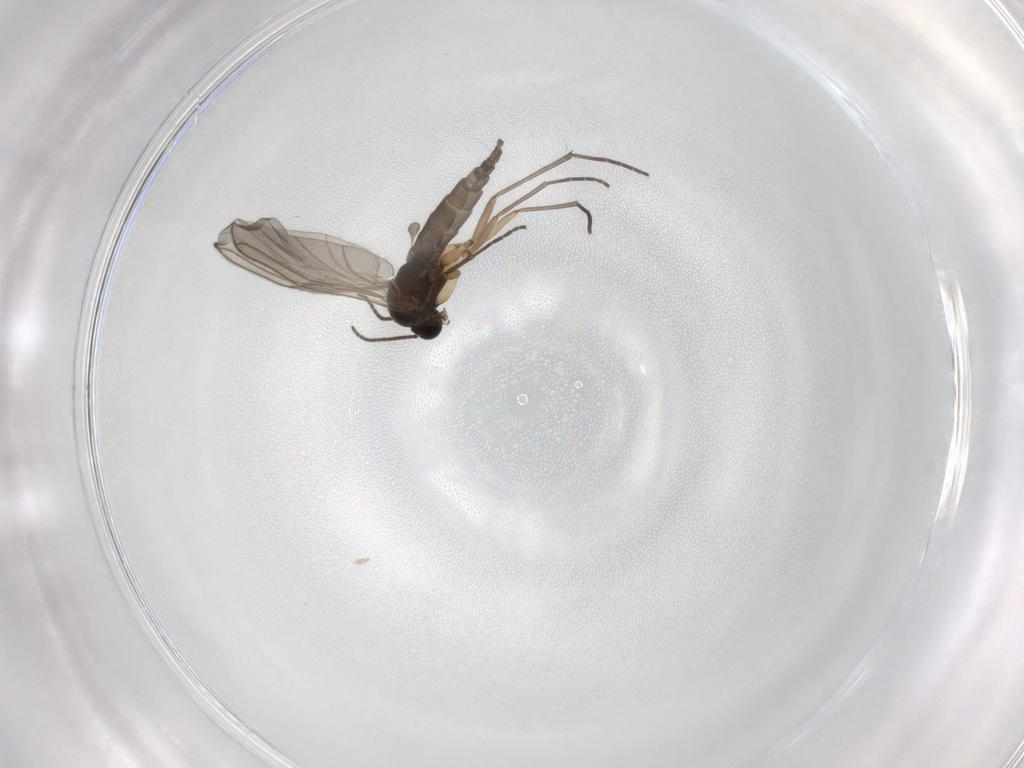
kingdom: Animalia
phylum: Arthropoda
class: Insecta
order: Diptera
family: Sciaridae
